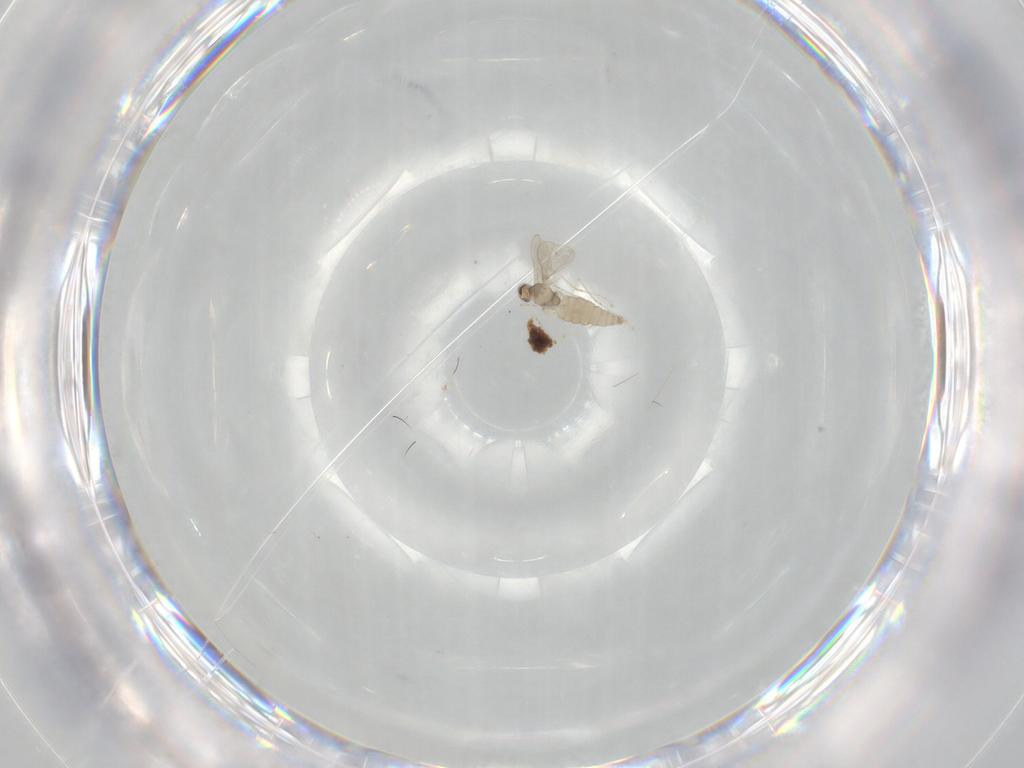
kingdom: Animalia
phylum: Arthropoda
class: Insecta
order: Diptera
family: Cecidomyiidae
